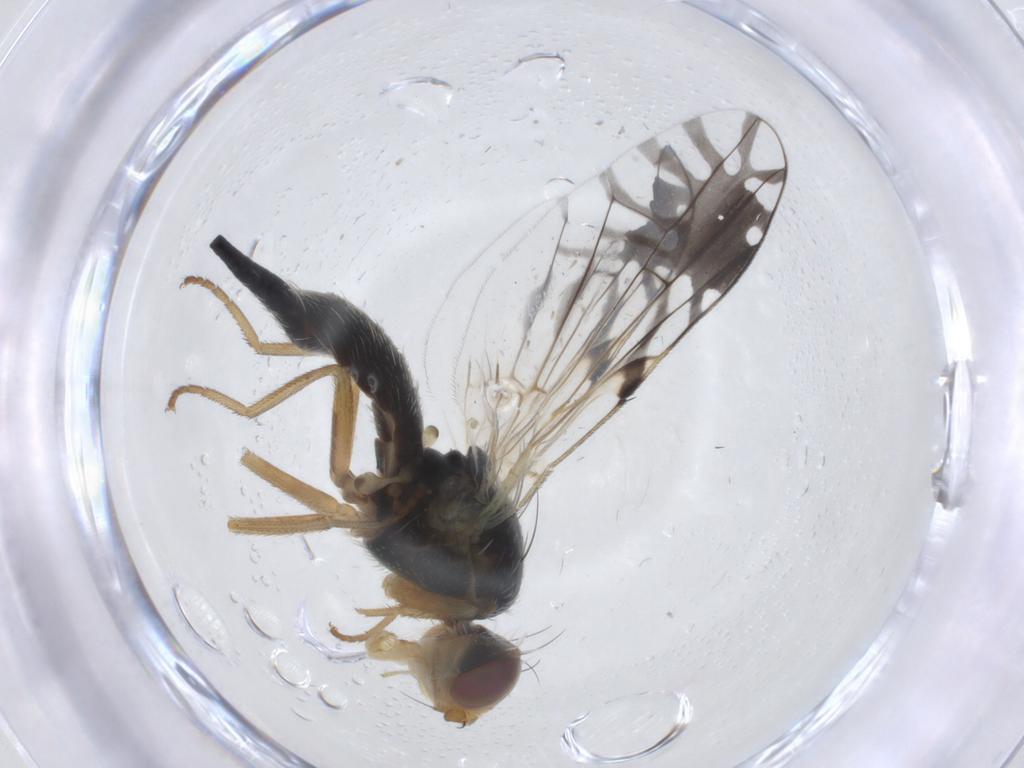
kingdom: Animalia
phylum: Arthropoda
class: Insecta
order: Diptera
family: Tephritidae
